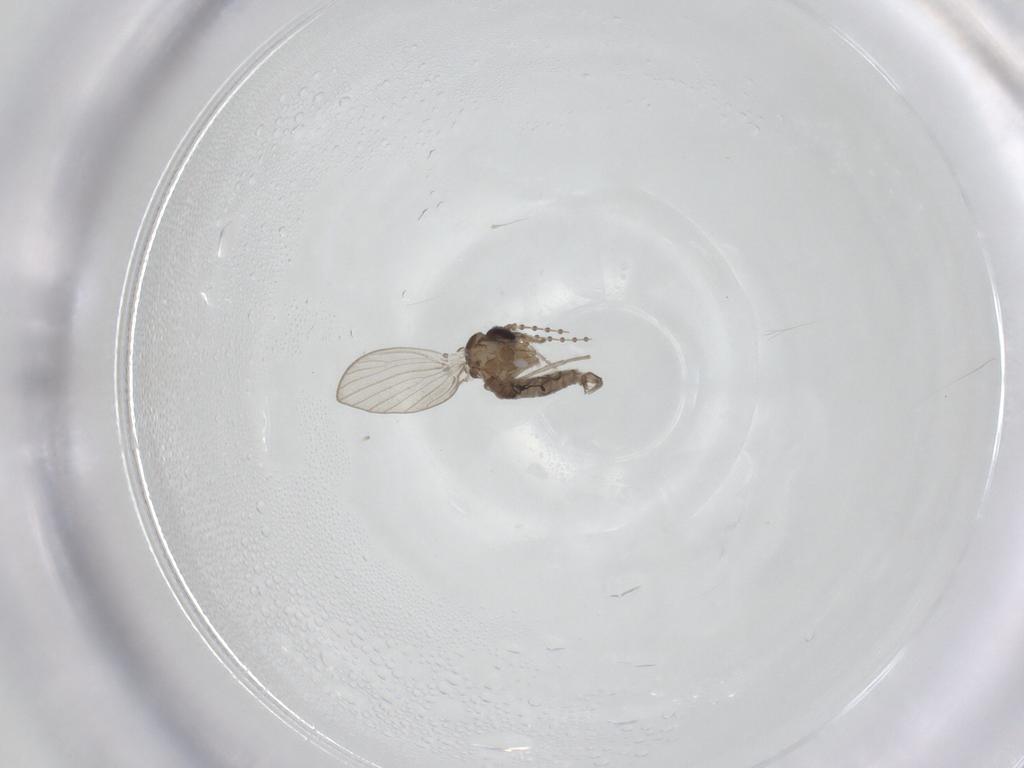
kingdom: Animalia
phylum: Arthropoda
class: Insecta
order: Diptera
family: Psychodidae
